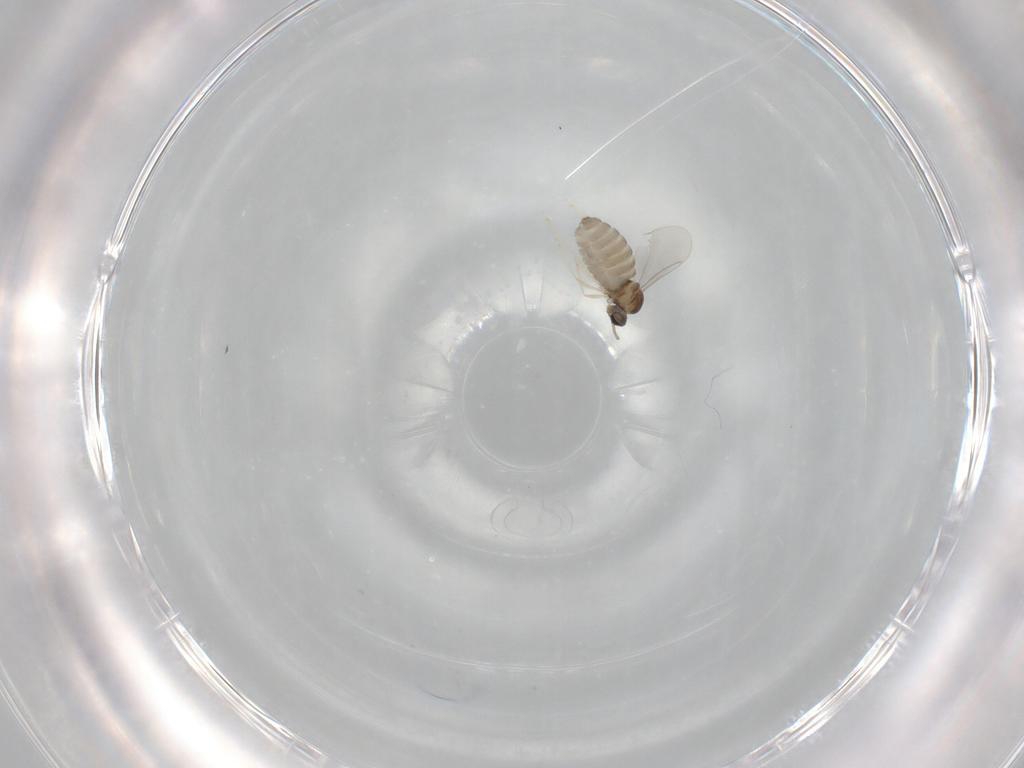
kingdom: Animalia
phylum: Arthropoda
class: Insecta
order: Diptera
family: Cecidomyiidae
